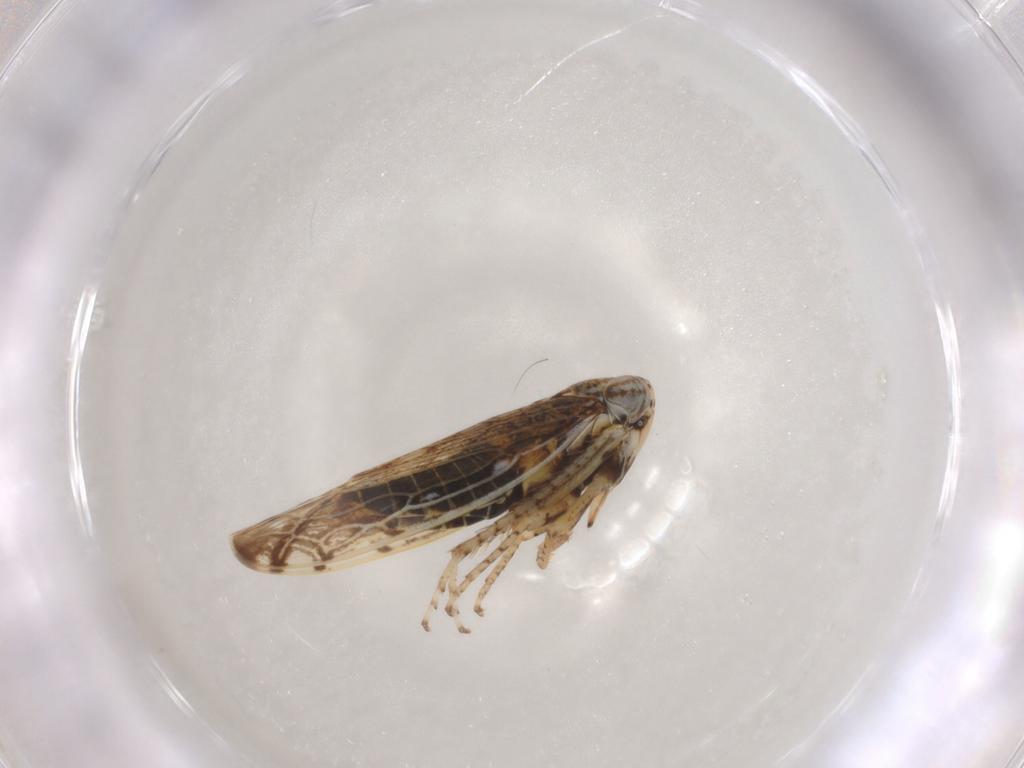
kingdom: Animalia
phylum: Arthropoda
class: Insecta
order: Hemiptera
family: Cicadellidae
